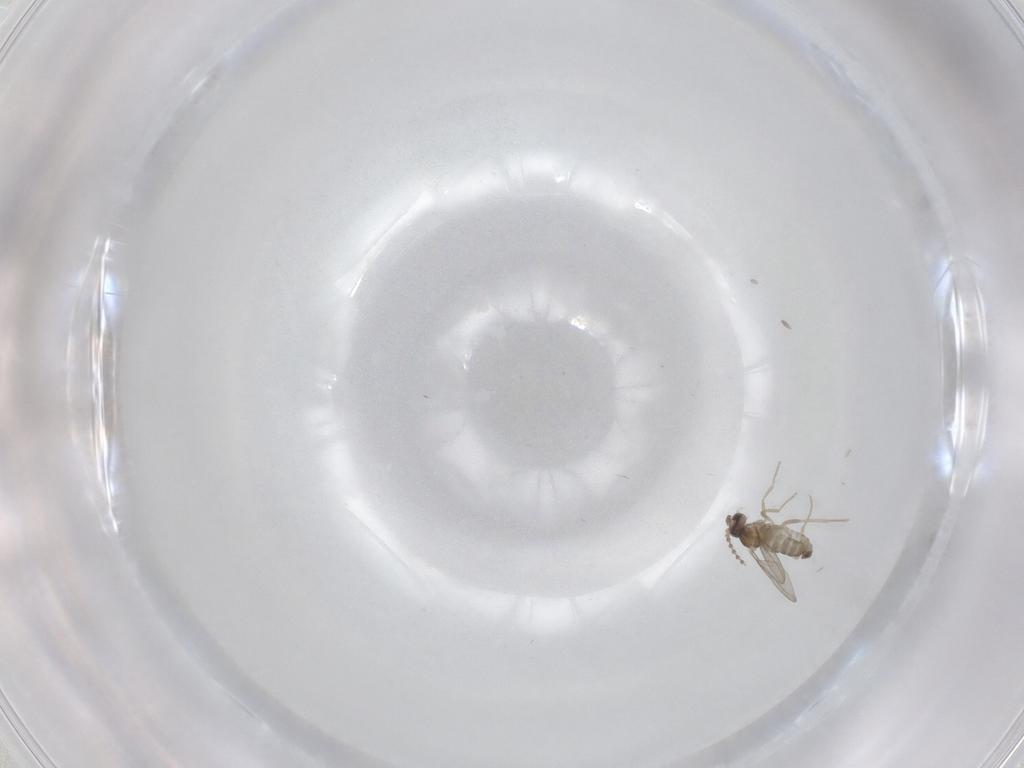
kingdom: Animalia
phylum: Arthropoda
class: Insecta
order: Diptera
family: Cecidomyiidae
